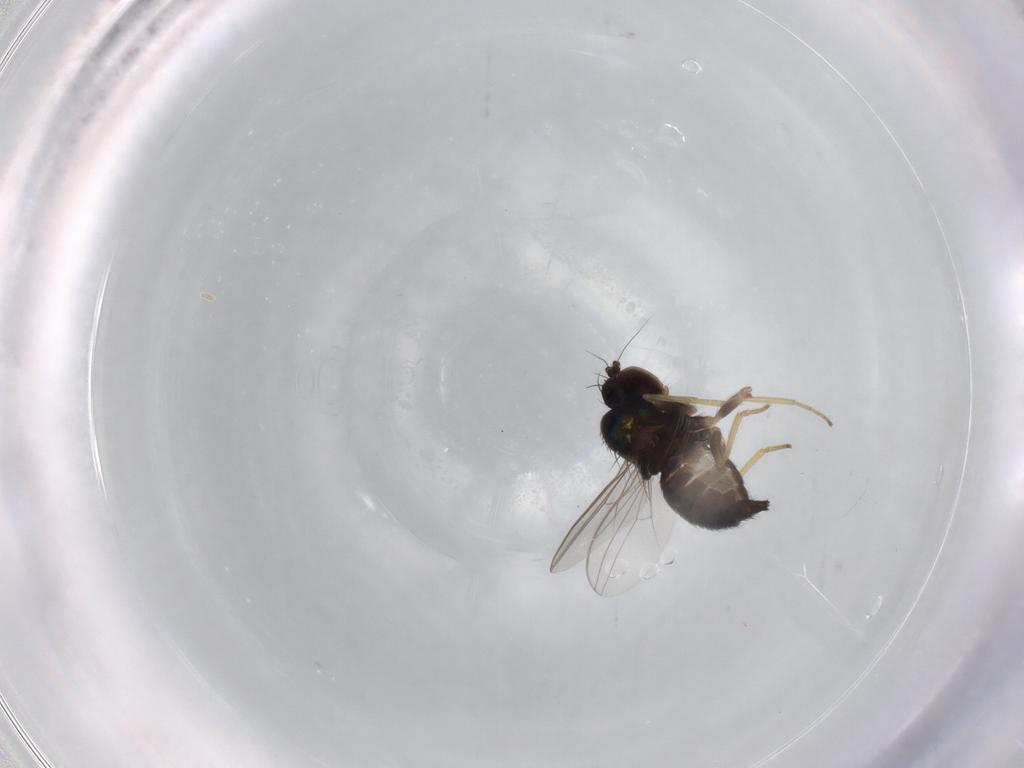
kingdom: Animalia
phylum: Arthropoda
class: Insecta
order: Diptera
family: Dolichopodidae
